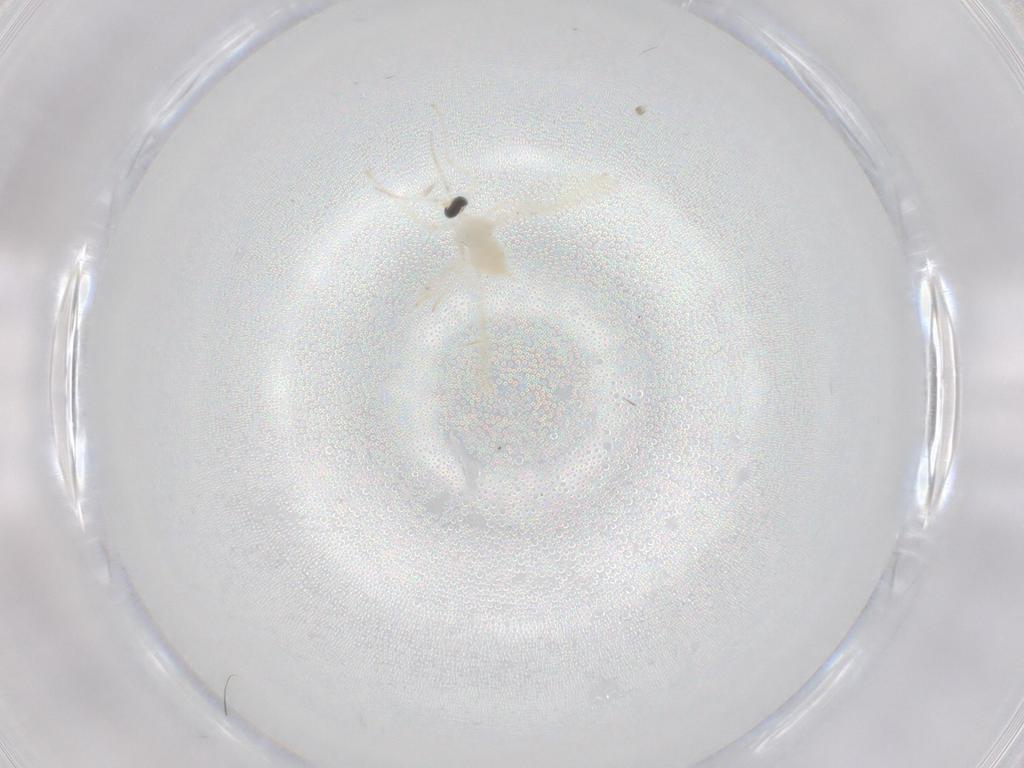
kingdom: Animalia
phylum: Arthropoda
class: Insecta
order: Diptera
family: Cecidomyiidae
